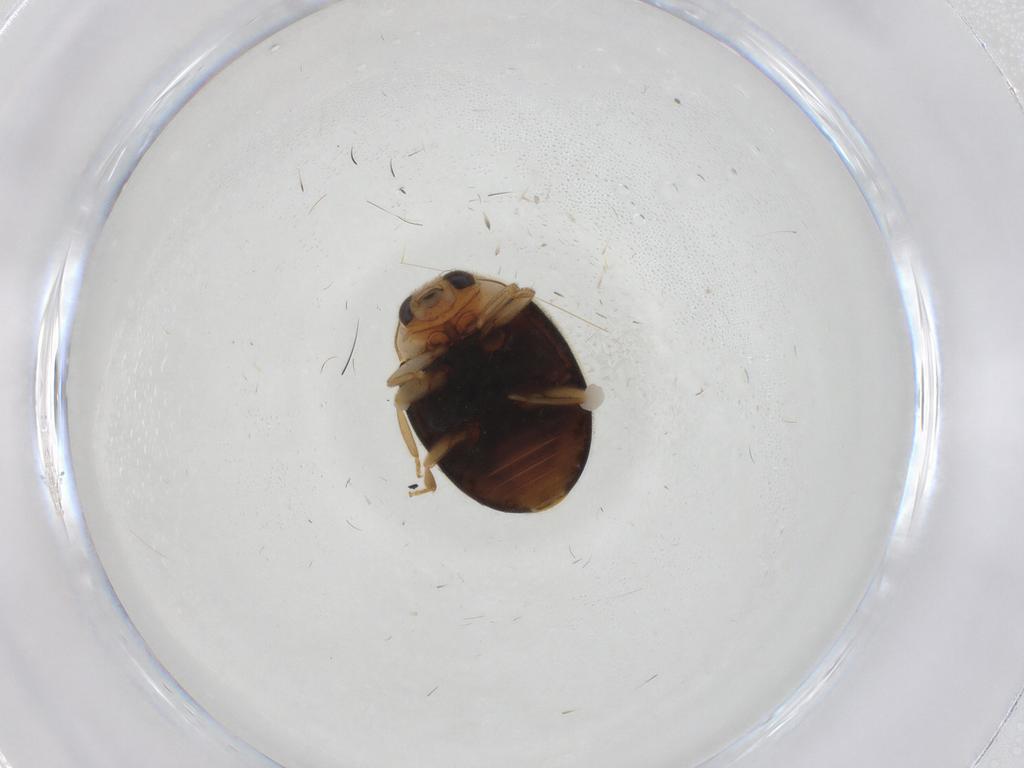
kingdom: Animalia
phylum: Arthropoda
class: Insecta
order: Coleoptera
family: Coccinellidae
